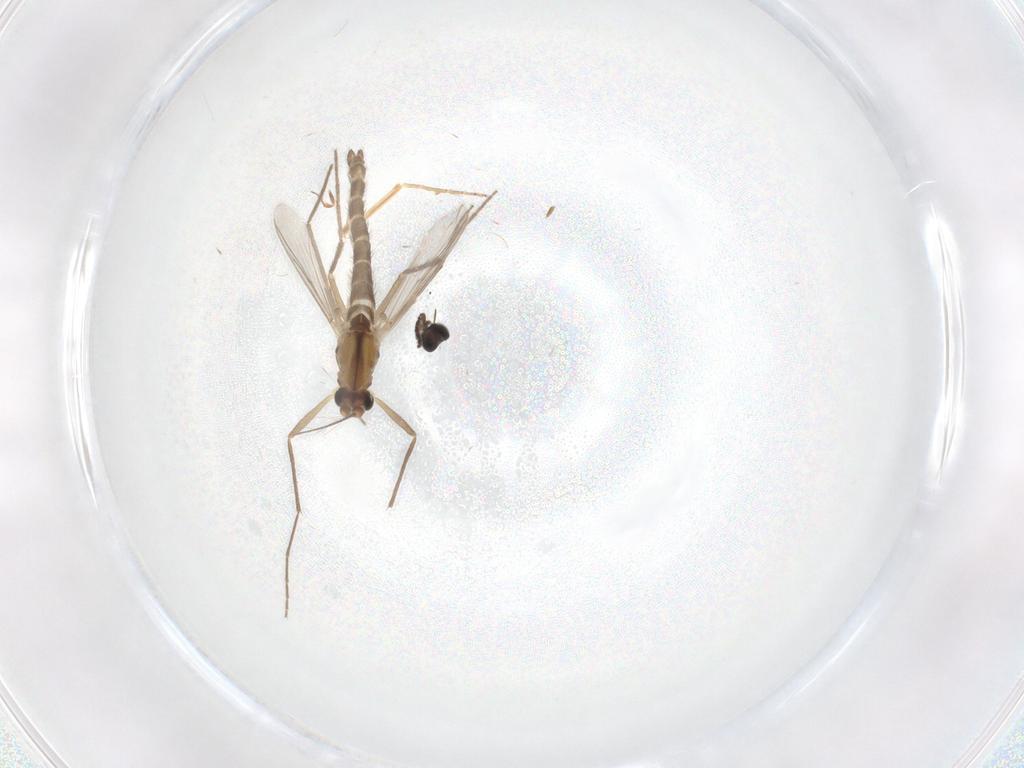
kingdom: Animalia
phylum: Arthropoda
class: Insecta
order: Diptera
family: Chironomidae
